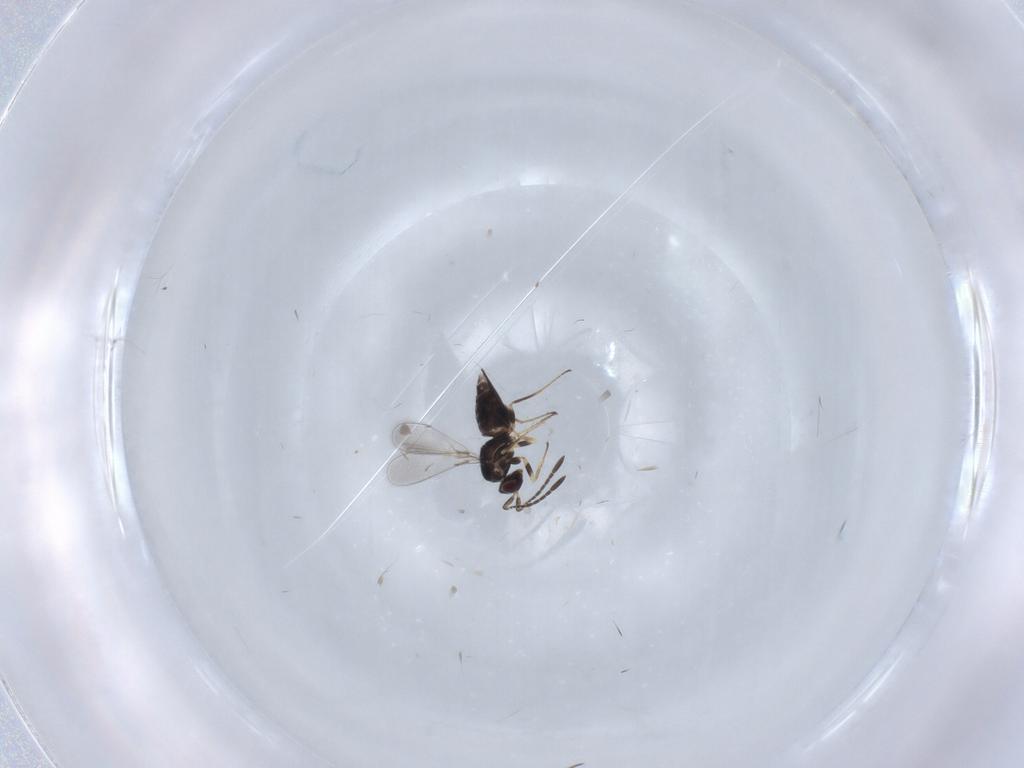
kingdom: Animalia
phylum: Arthropoda
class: Insecta
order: Hymenoptera
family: Mymaridae
